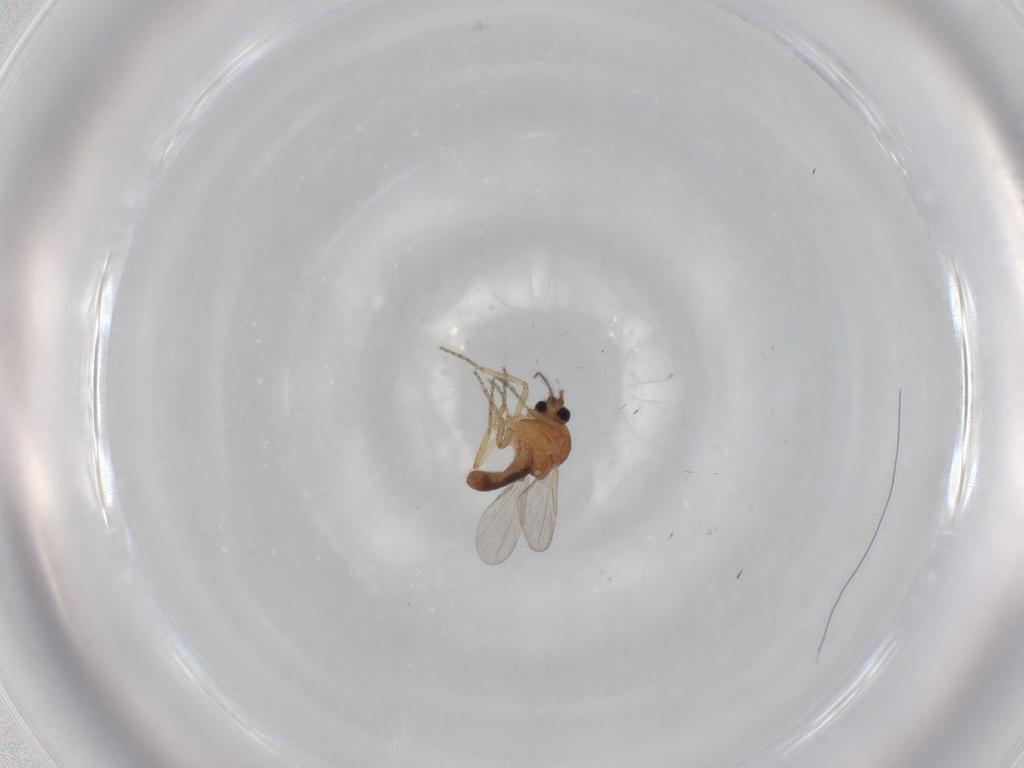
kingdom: Animalia
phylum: Arthropoda
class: Insecta
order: Diptera
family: Ceratopogonidae
